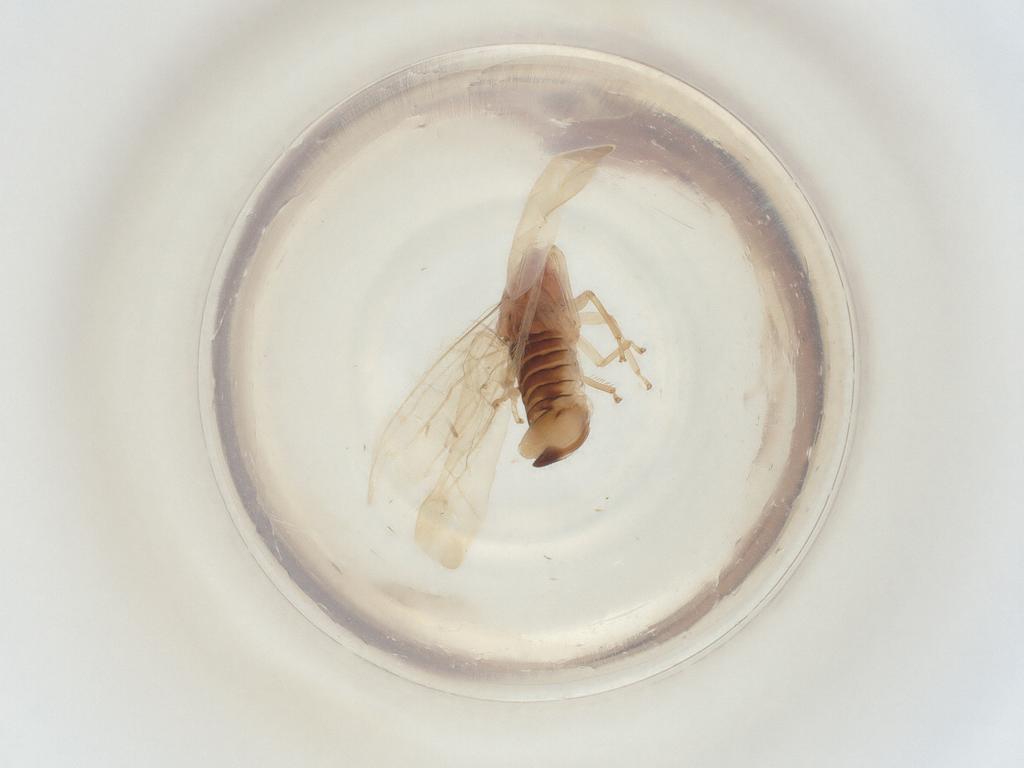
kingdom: Animalia
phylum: Arthropoda
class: Insecta
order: Hemiptera
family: Cicadellidae
